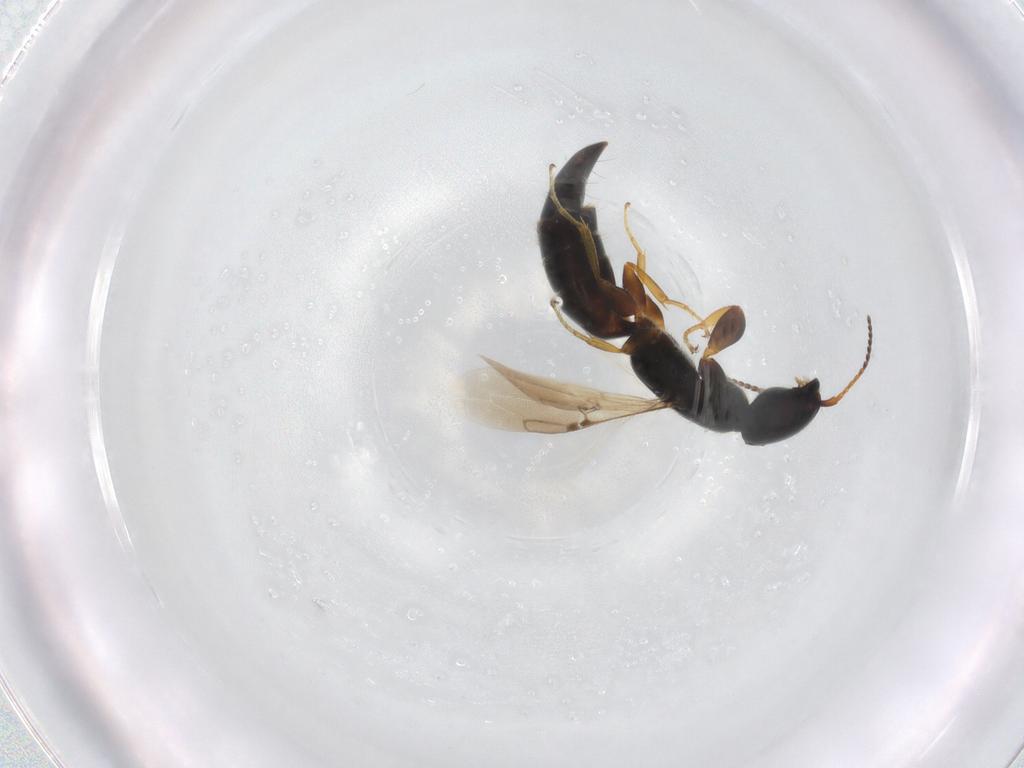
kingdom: Animalia
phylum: Arthropoda
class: Insecta
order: Hymenoptera
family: Bethylidae
